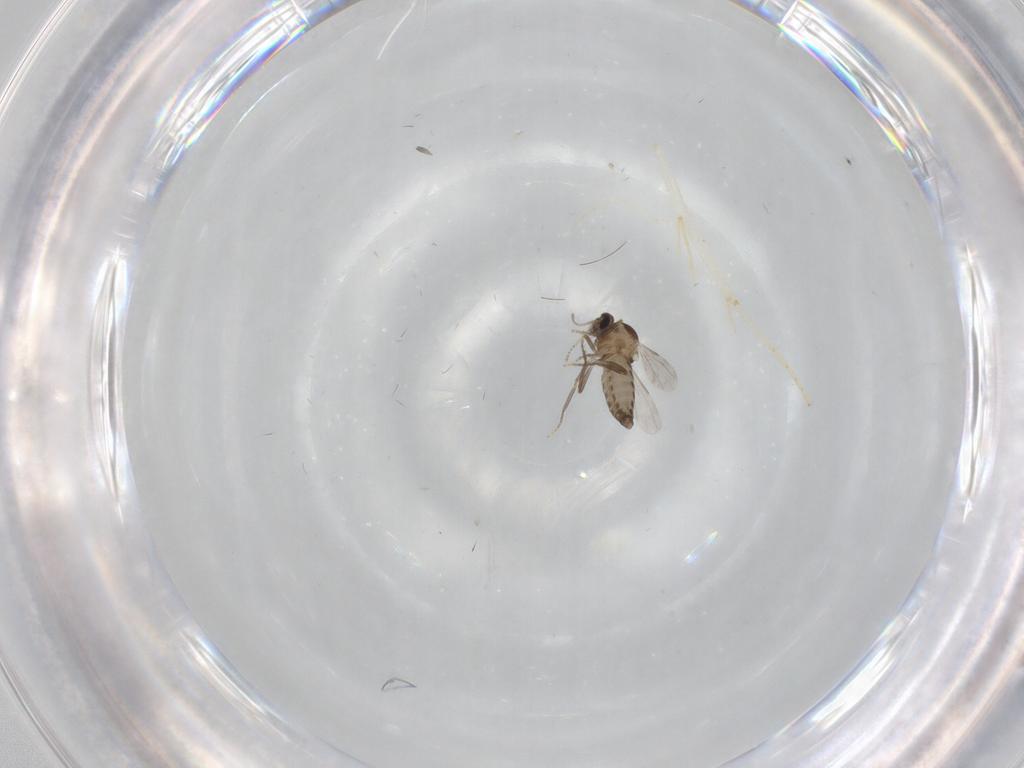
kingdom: Animalia
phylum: Arthropoda
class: Insecta
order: Diptera
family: Ceratopogonidae
